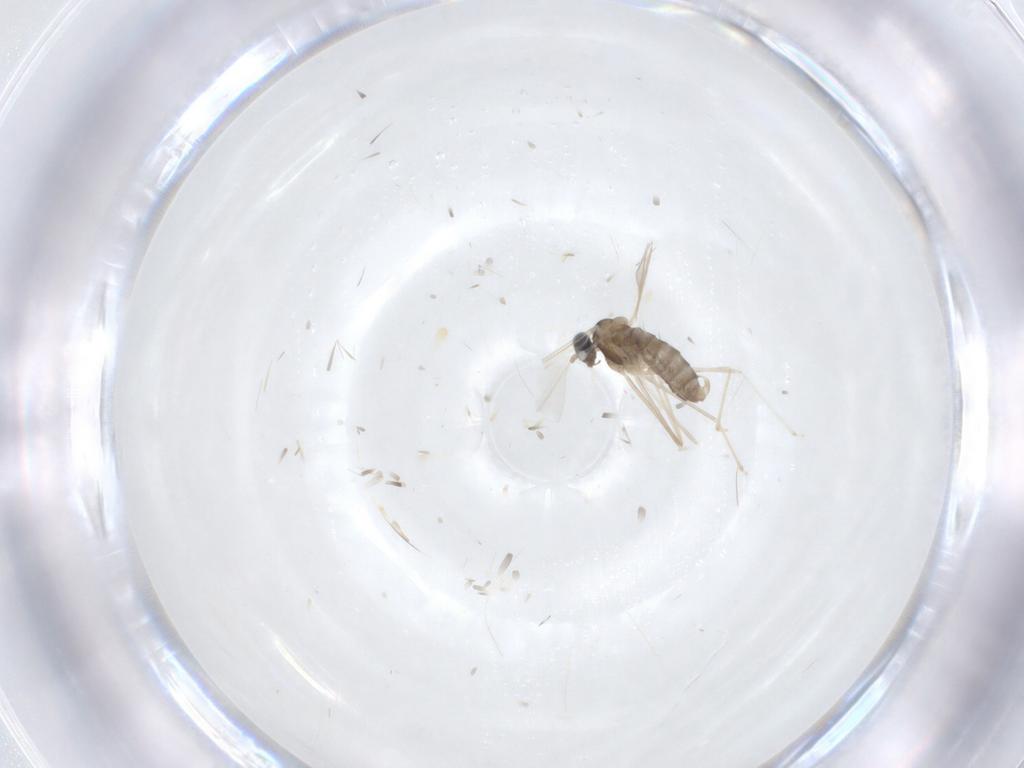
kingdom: Animalia
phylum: Arthropoda
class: Insecta
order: Diptera
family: Cecidomyiidae
